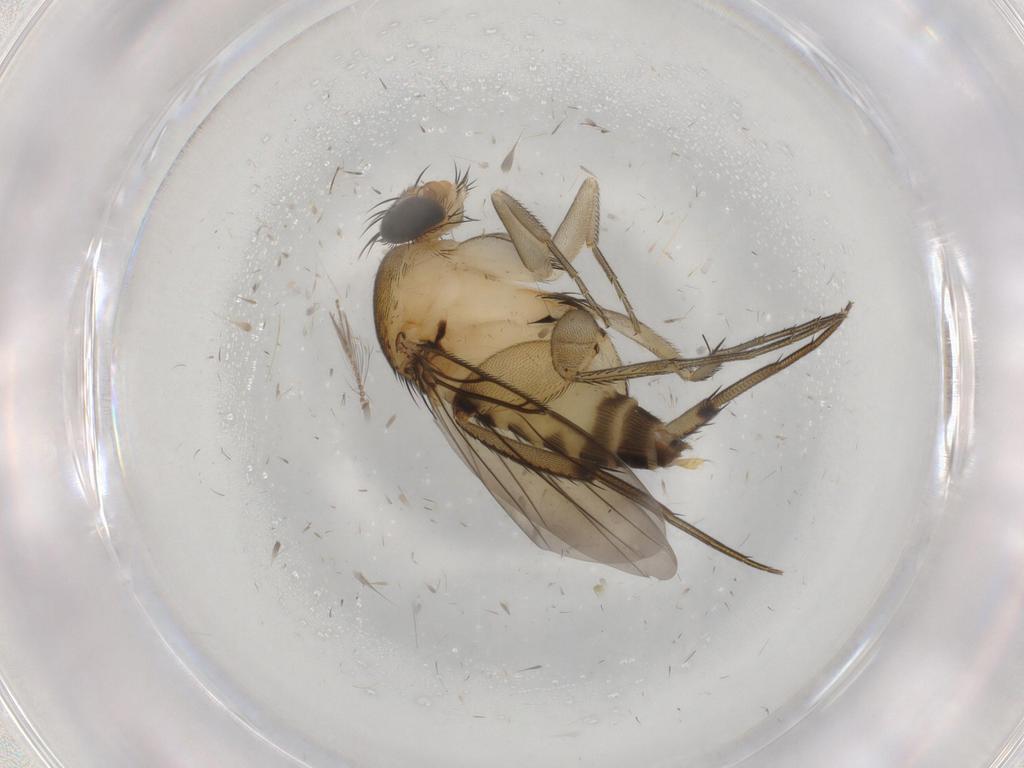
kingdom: Animalia
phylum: Arthropoda
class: Insecta
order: Diptera
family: Phoridae
